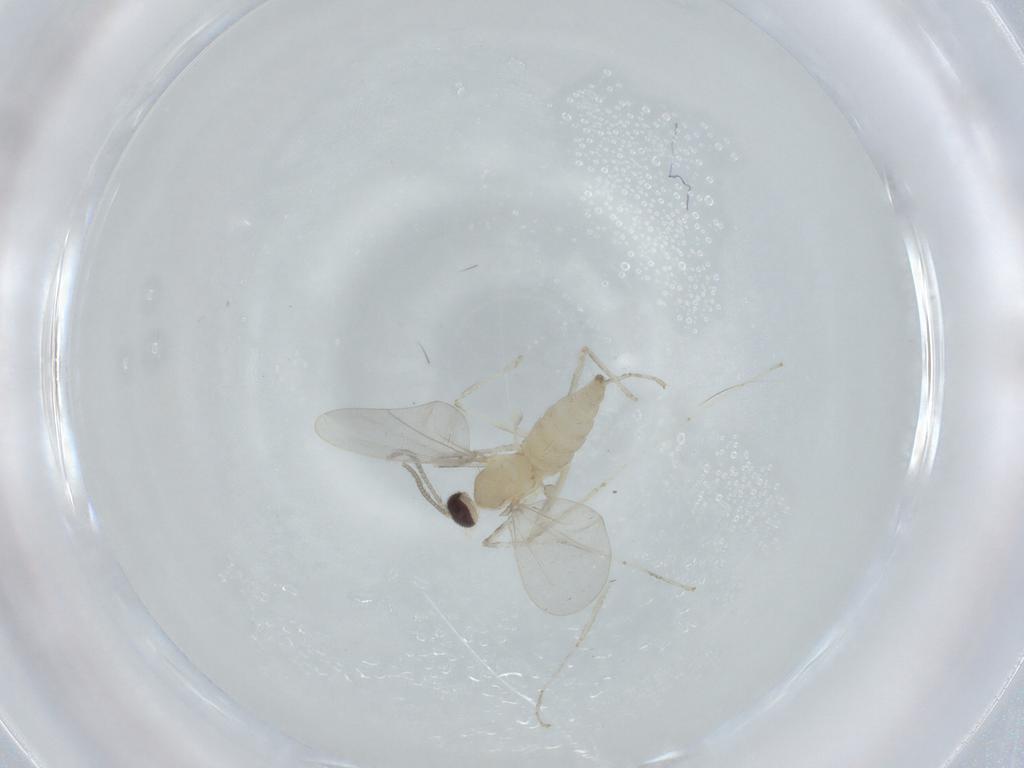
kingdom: Animalia
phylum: Arthropoda
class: Insecta
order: Diptera
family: Cecidomyiidae
